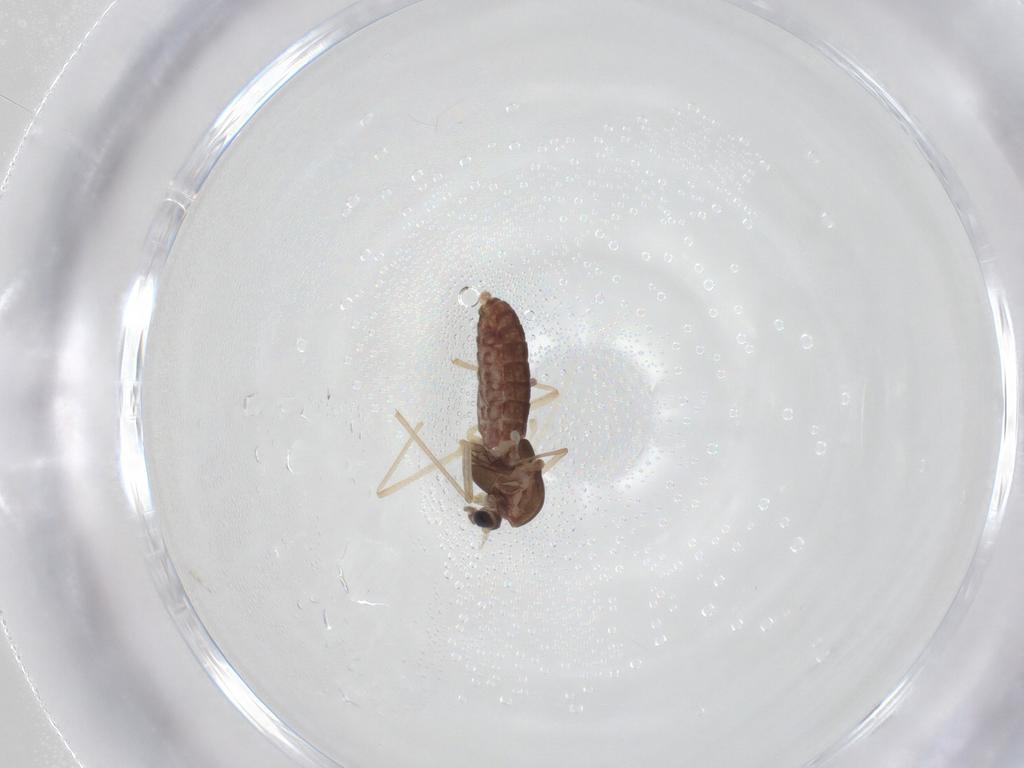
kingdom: Animalia
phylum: Arthropoda
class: Insecta
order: Diptera
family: Chironomidae
